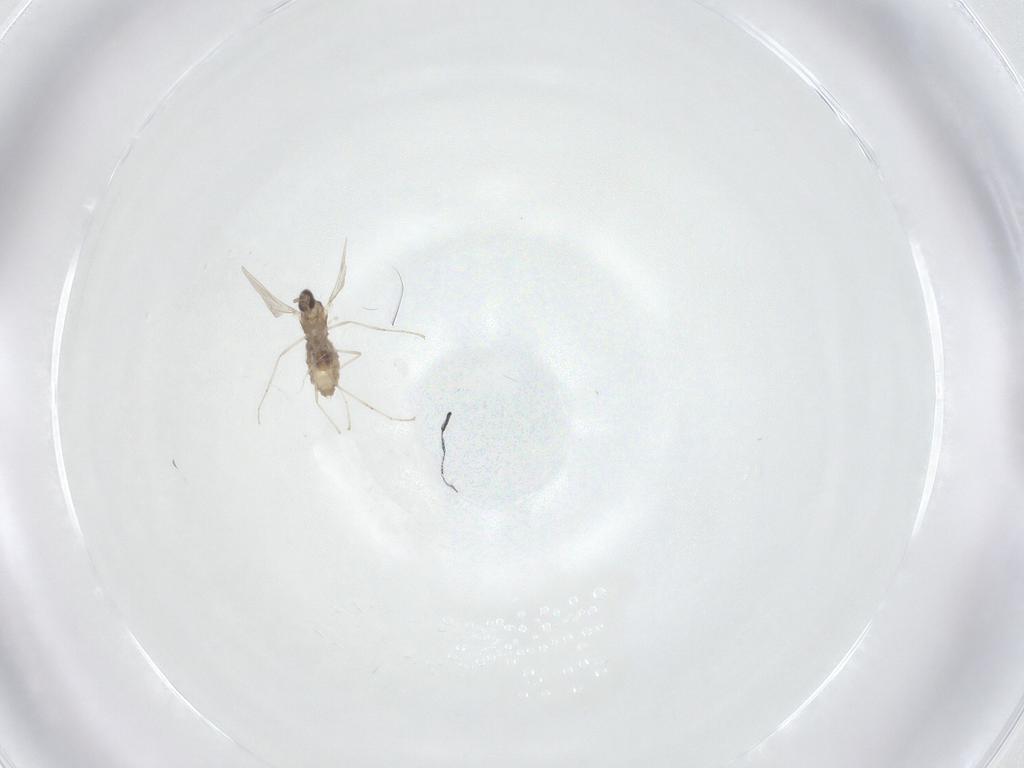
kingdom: Animalia
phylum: Arthropoda
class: Insecta
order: Diptera
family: Cecidomyiidae
